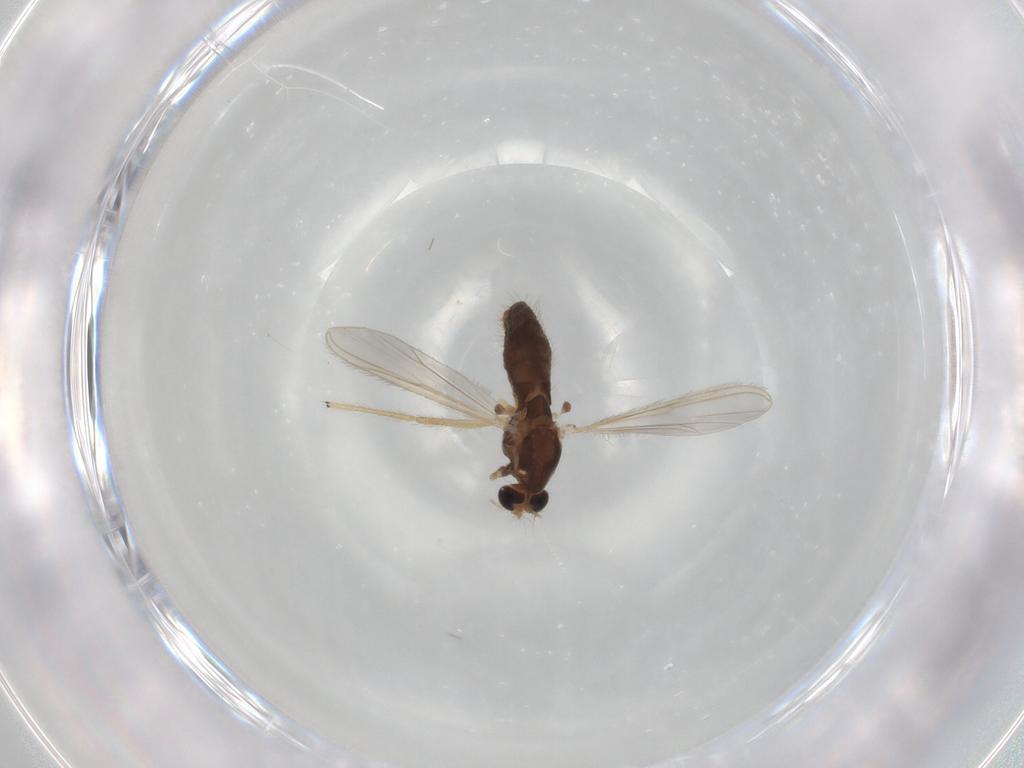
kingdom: Animalia
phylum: Arthropoda
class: Insecta
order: Diptera
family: Chironomidae
